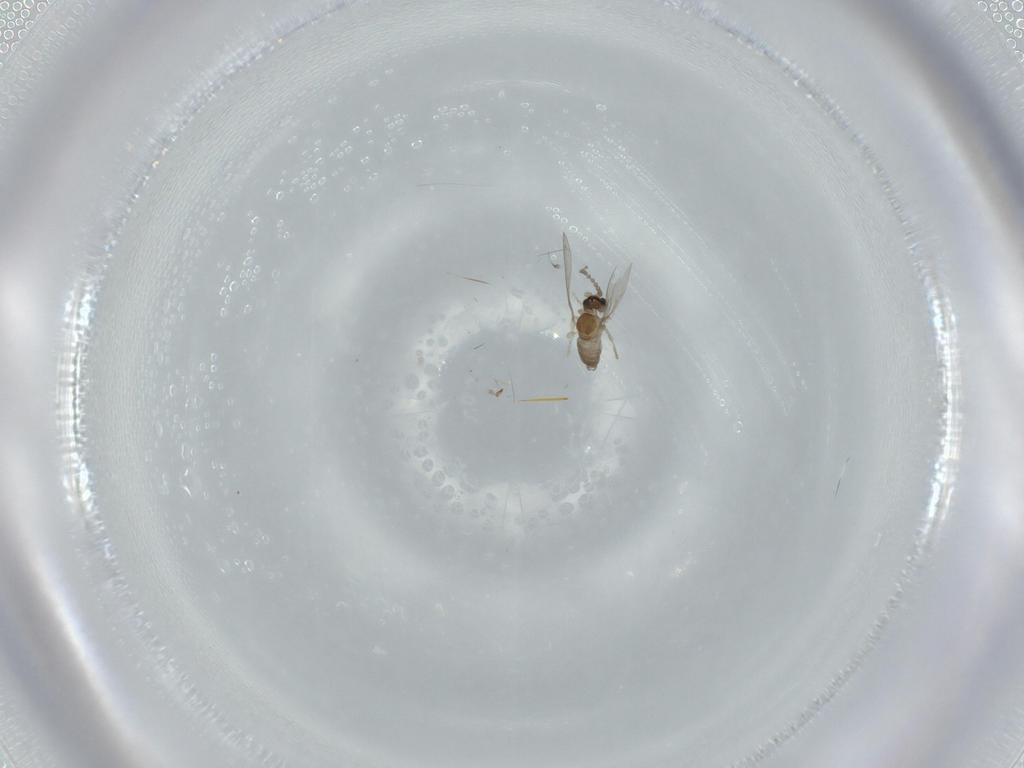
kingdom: Animalia
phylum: Arthropoda
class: Insecta
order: Diptera
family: Cecidomyiidae
